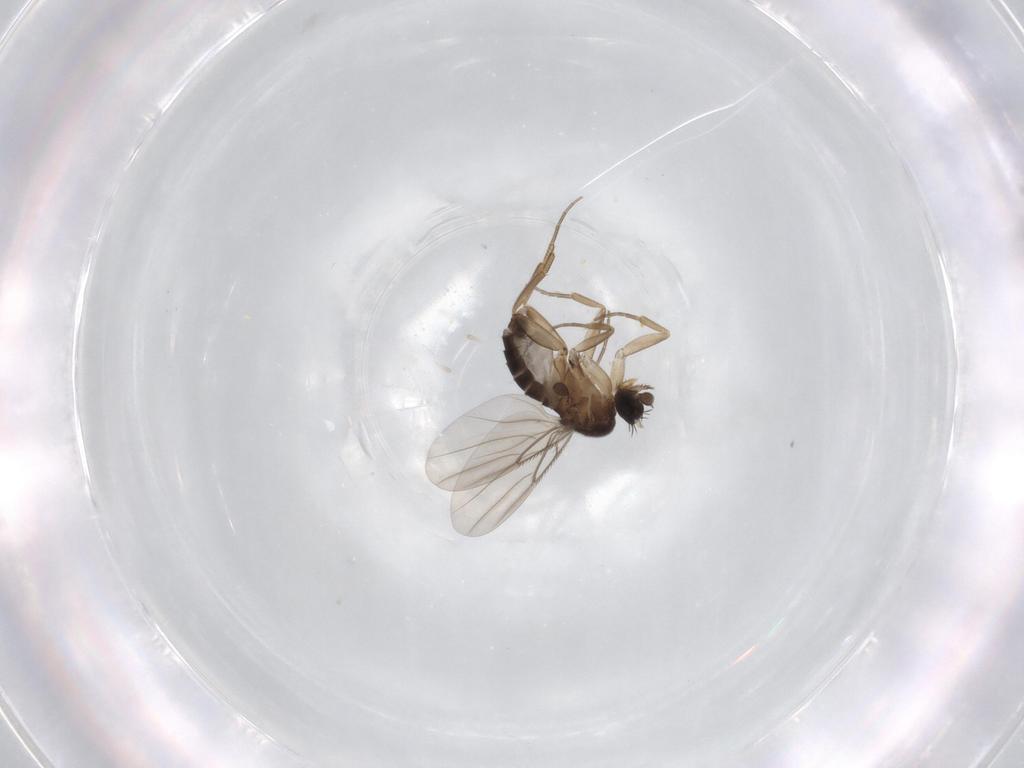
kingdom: Animalia
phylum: Arthropoda
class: Insecta
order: Diptera
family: Phoridae
